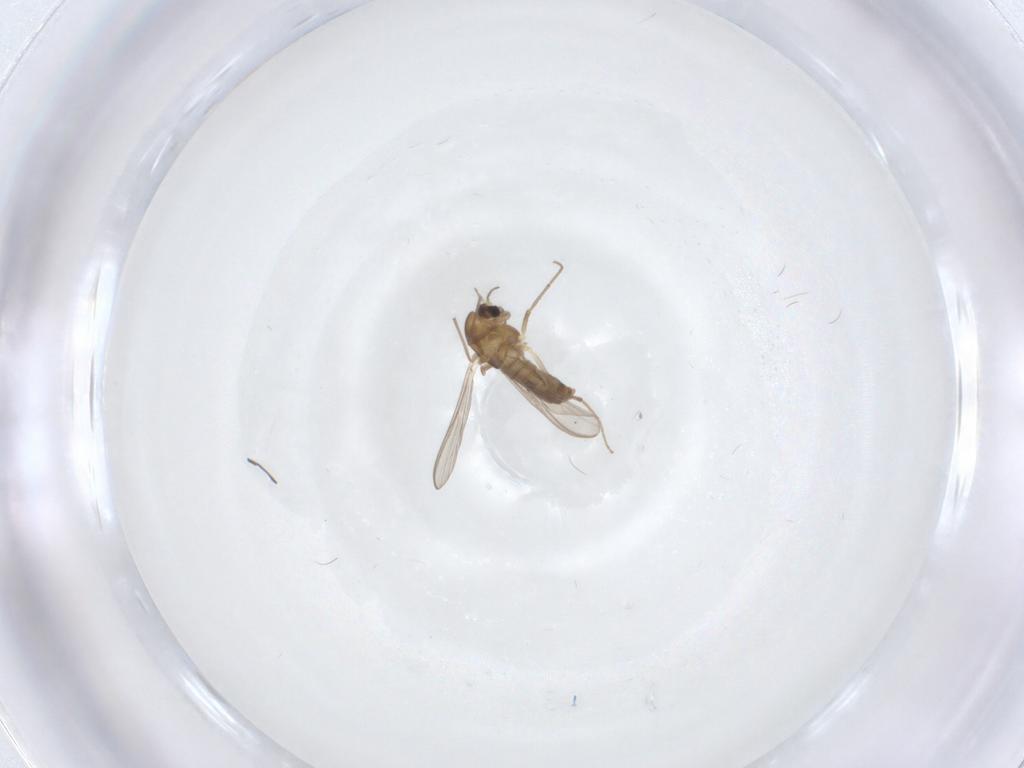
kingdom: Animalia
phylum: Arthropoda
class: Insecta
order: Diptera
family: Chironomidae
